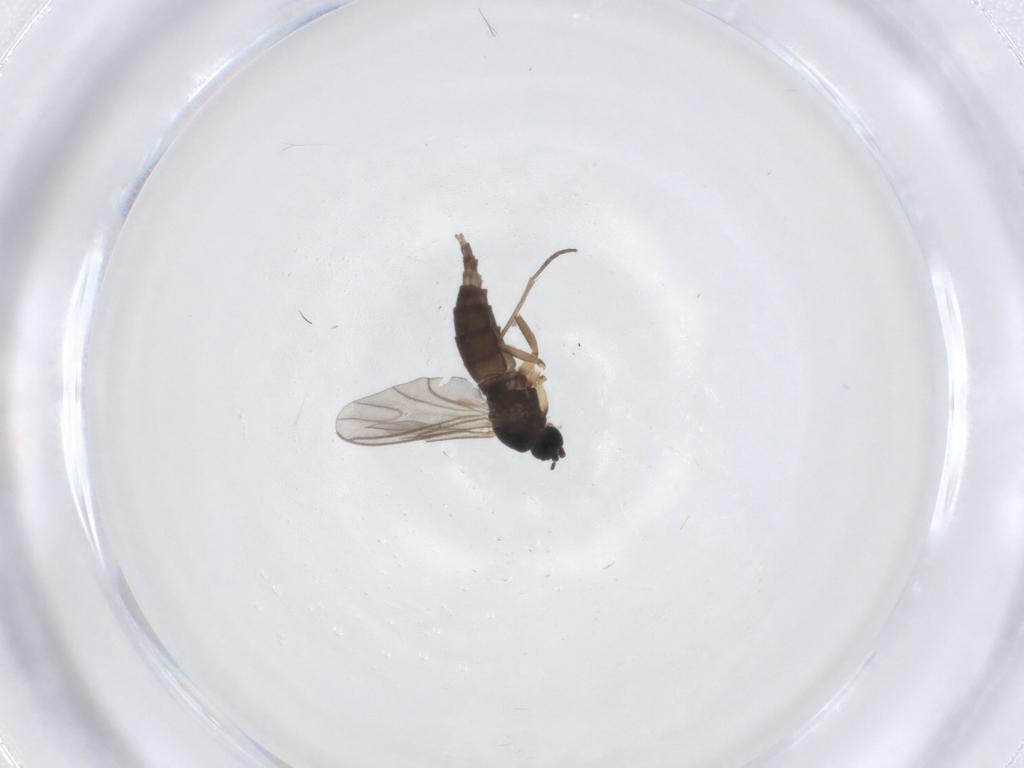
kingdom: Animalia
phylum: Arthropoda
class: Insecta
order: Diptera
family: Sciaridae
